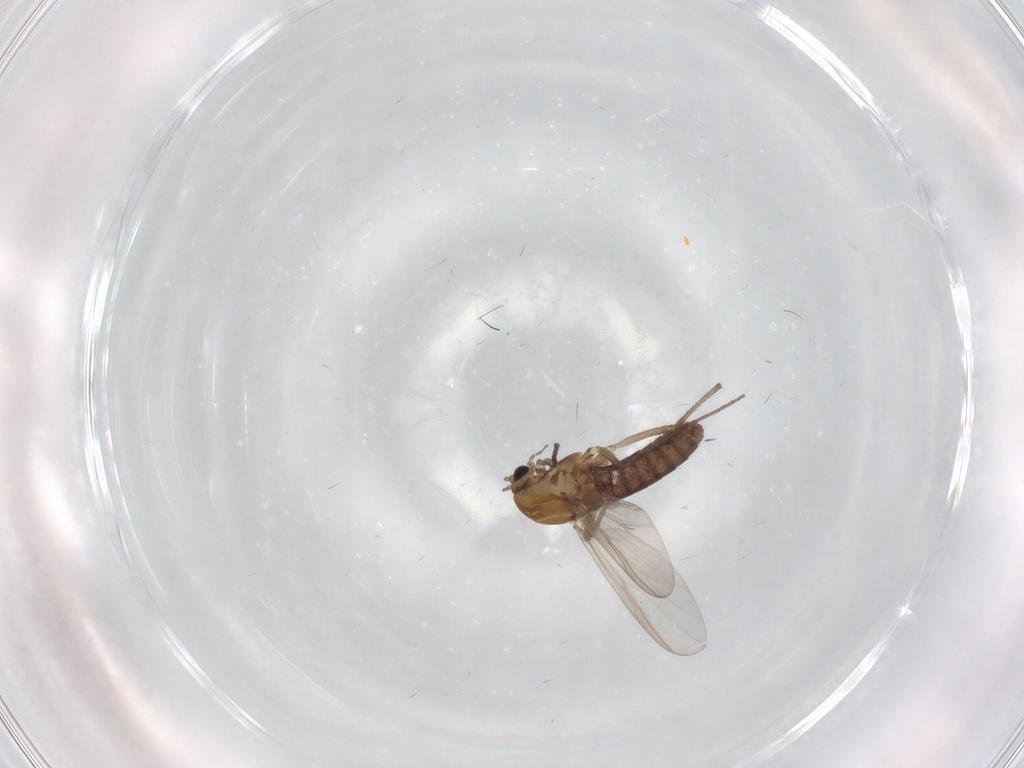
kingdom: Animalia
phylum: Arthropoda
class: Insecta
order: Diptera
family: Chironomidae
